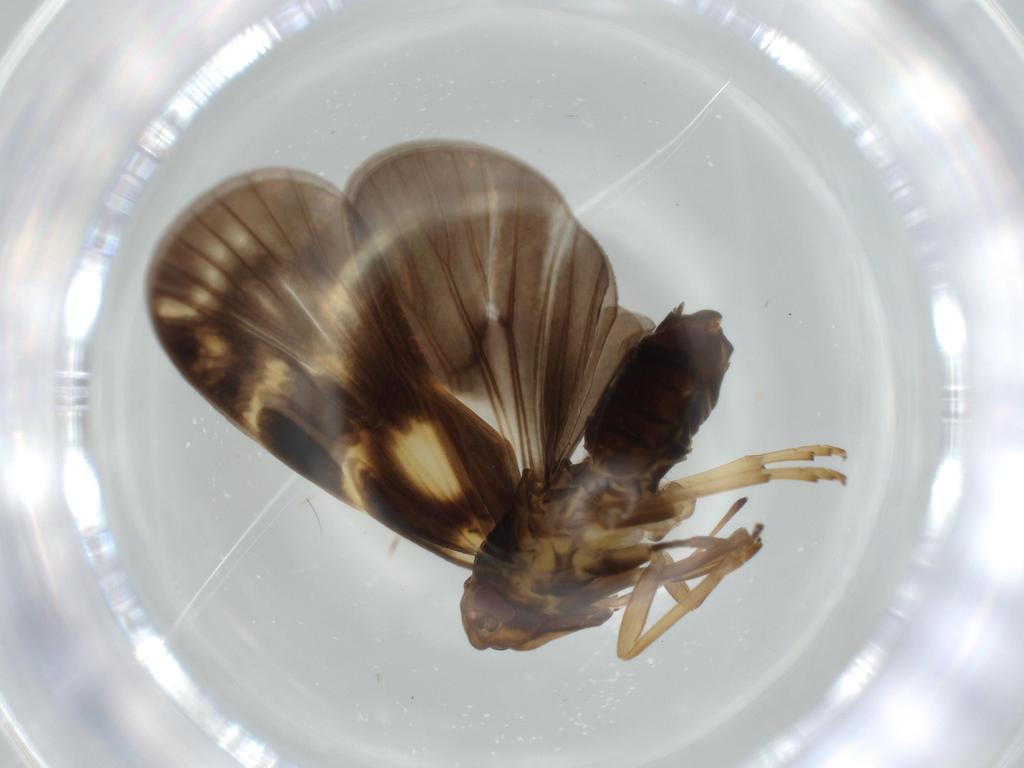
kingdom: Animalia
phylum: Arthropoda
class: Insecta
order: Hemiptera
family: Cixiidae
